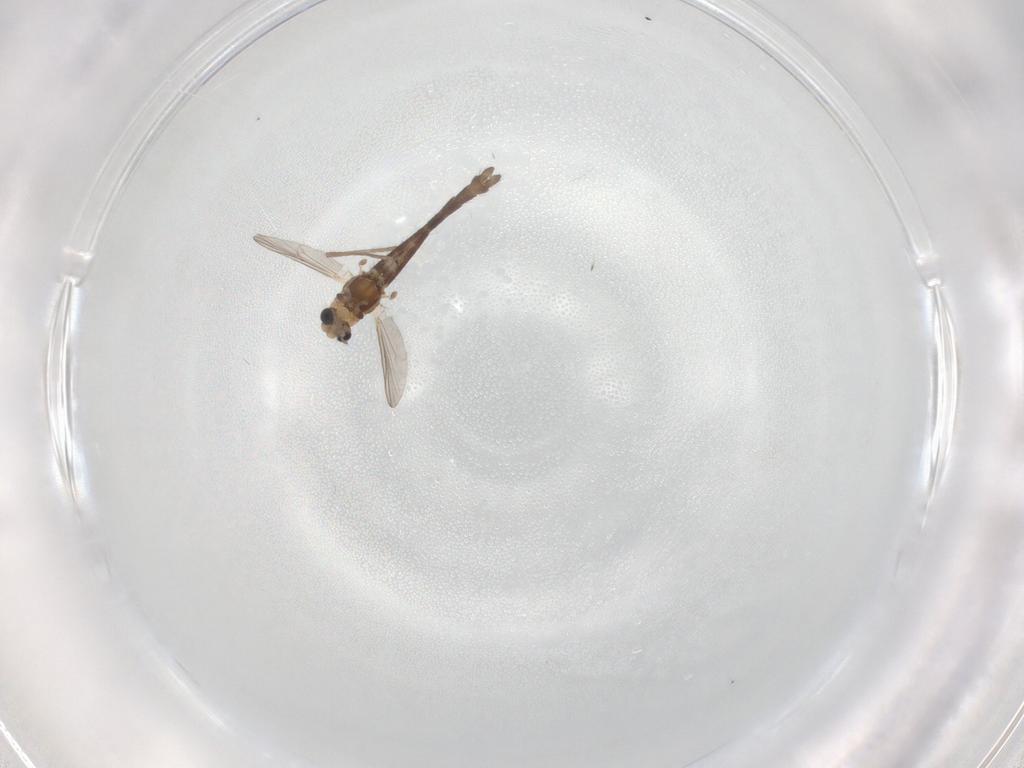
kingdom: Animalia
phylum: Arthropoda
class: Insecta
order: Diptera
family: Chironomidae
